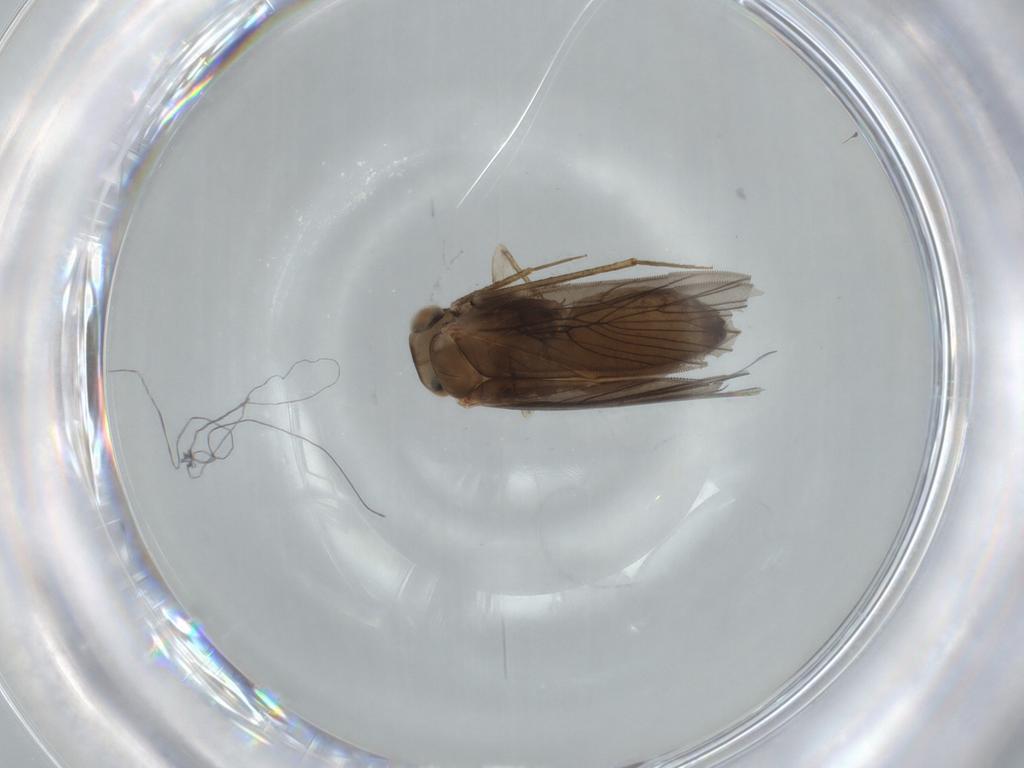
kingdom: Animalia
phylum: Arthropoda
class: Insecta
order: Psocodea
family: Lepidopsocidae
